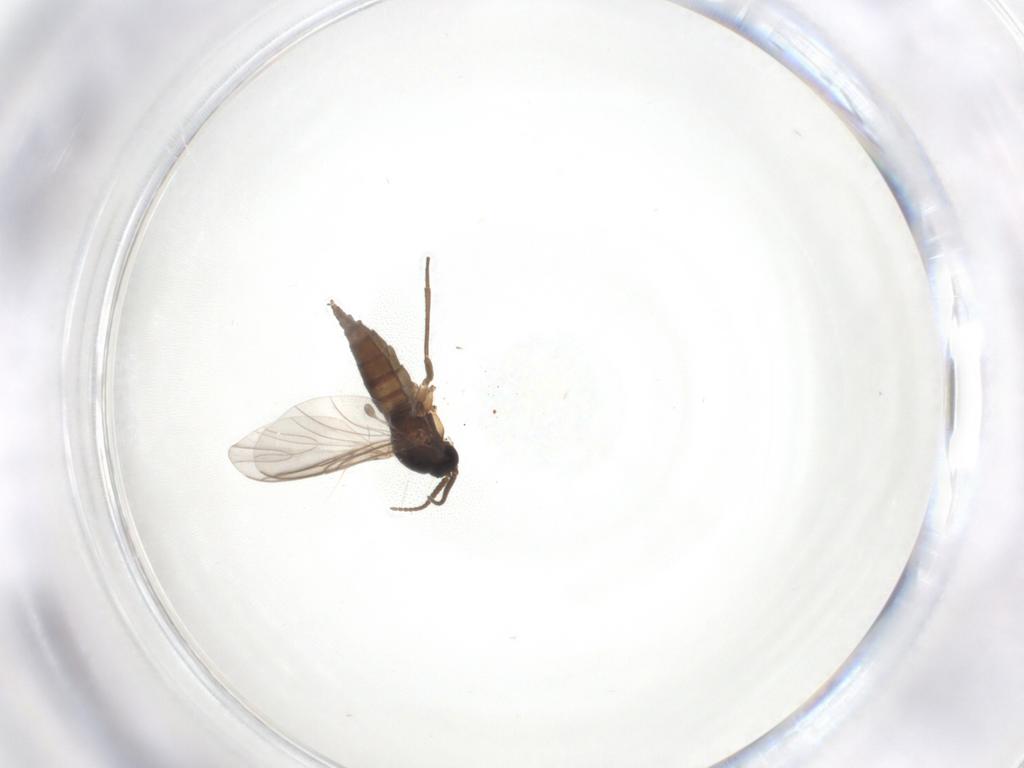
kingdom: Animalia
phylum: Arthropoda
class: Insecta
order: Diptera
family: Sciaridae
